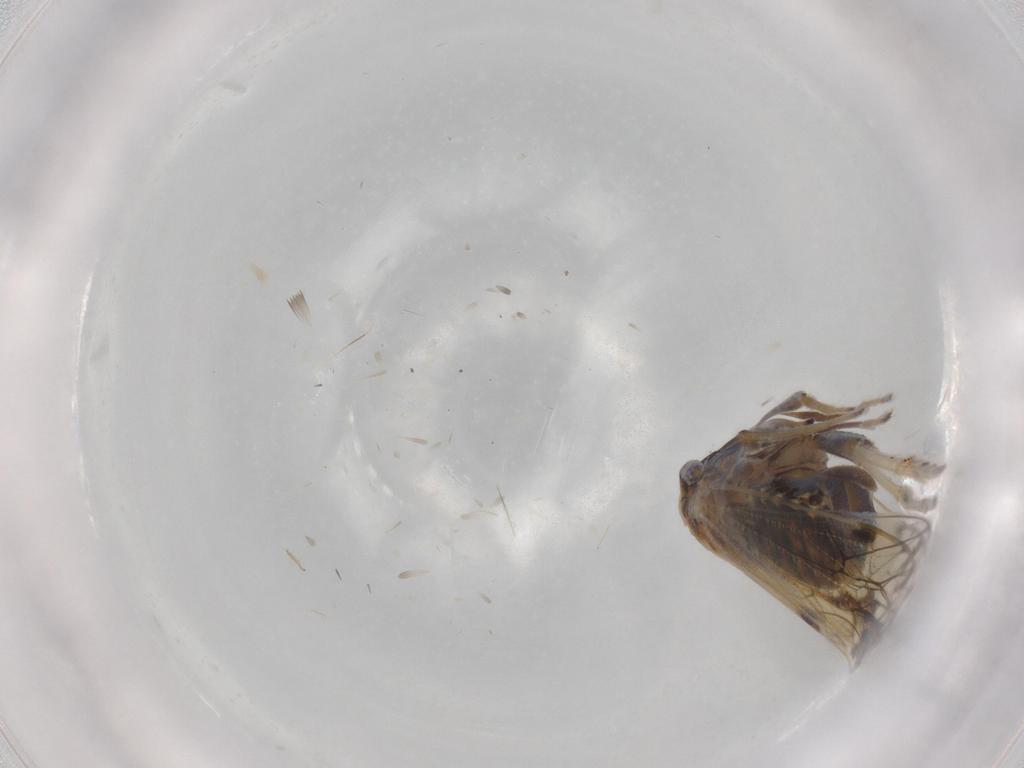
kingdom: Animalia
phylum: Arthropoda
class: Insecta
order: Hemiptera
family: Delphacidae
